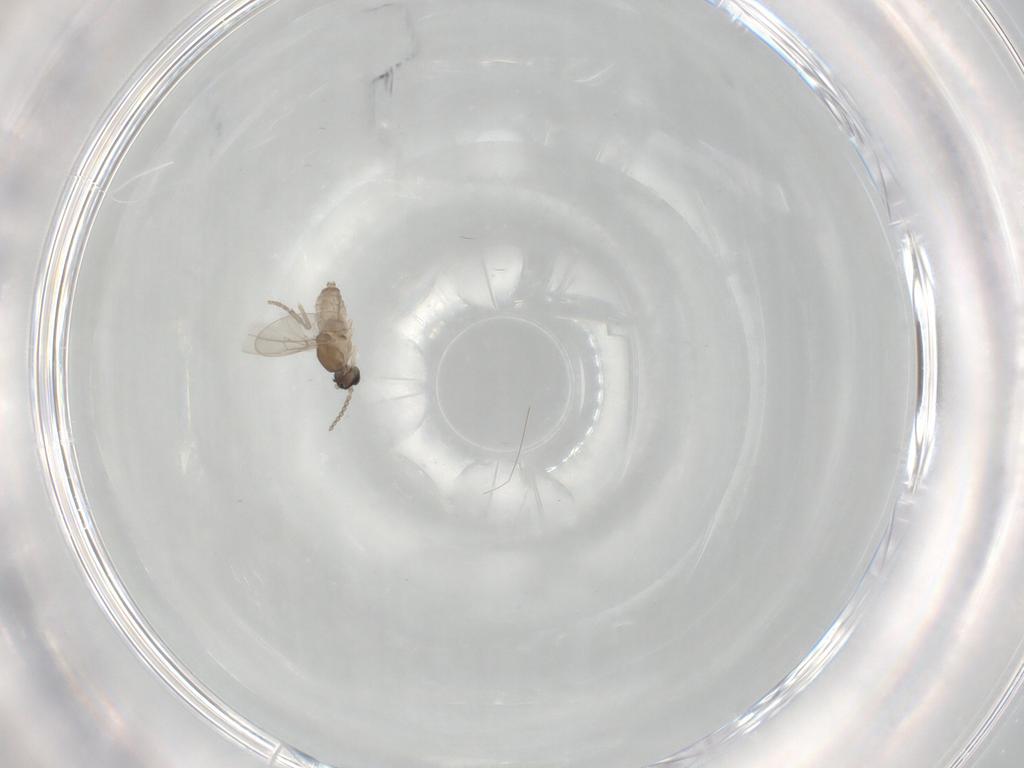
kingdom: Animalia
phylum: Arthropoda
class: Insecta
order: Diptera
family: Cecidomyiidae
